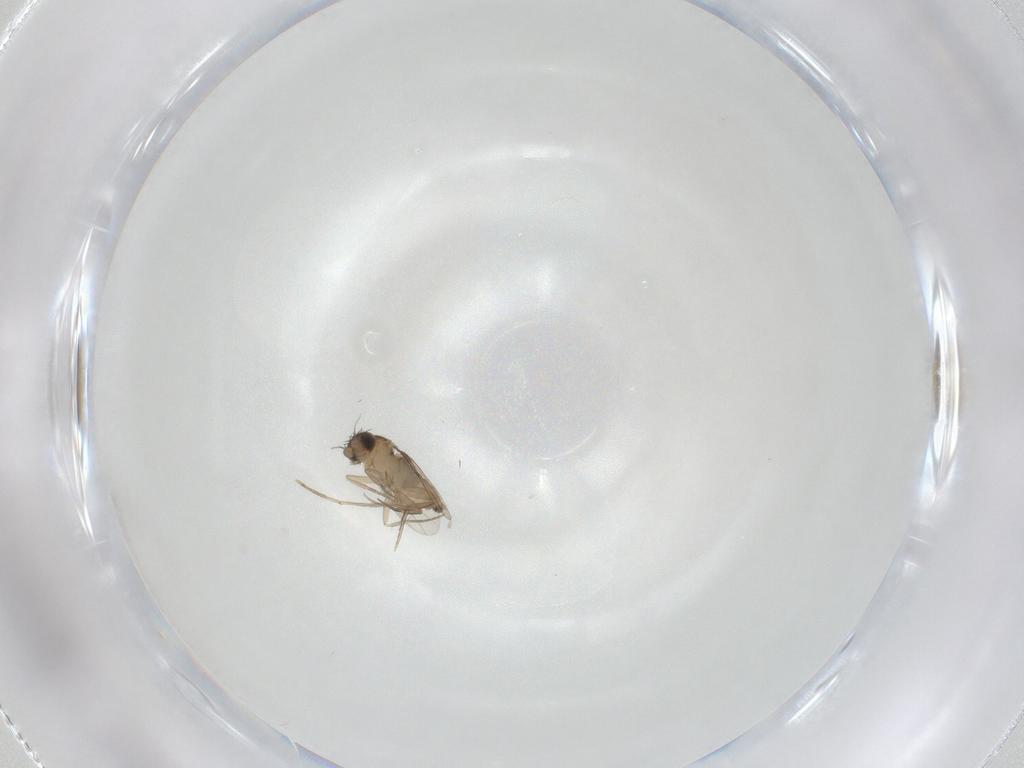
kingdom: Animalia
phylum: Arthropoda
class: Insecta
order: Diptera
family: Phoridae
